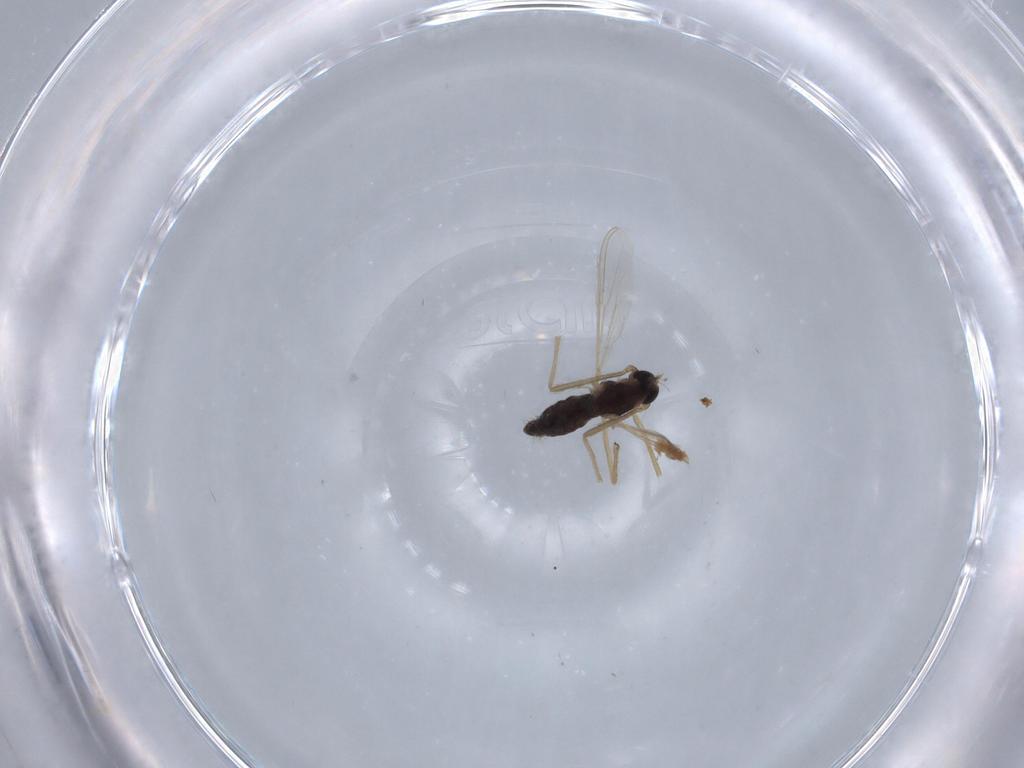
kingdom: Animalia
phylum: Arthropoda
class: Insecta
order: Diptera
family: Chironomidae
